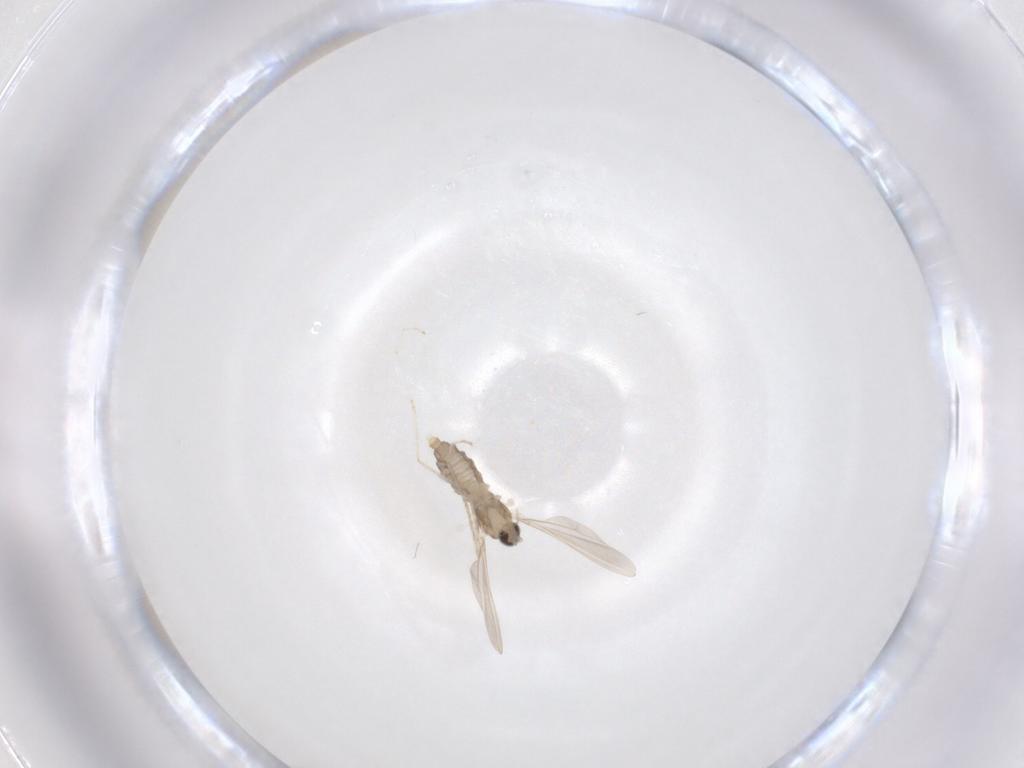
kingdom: Animalia
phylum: Arthropoda
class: Insecta
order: Diptera
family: Cecidomyiidae
